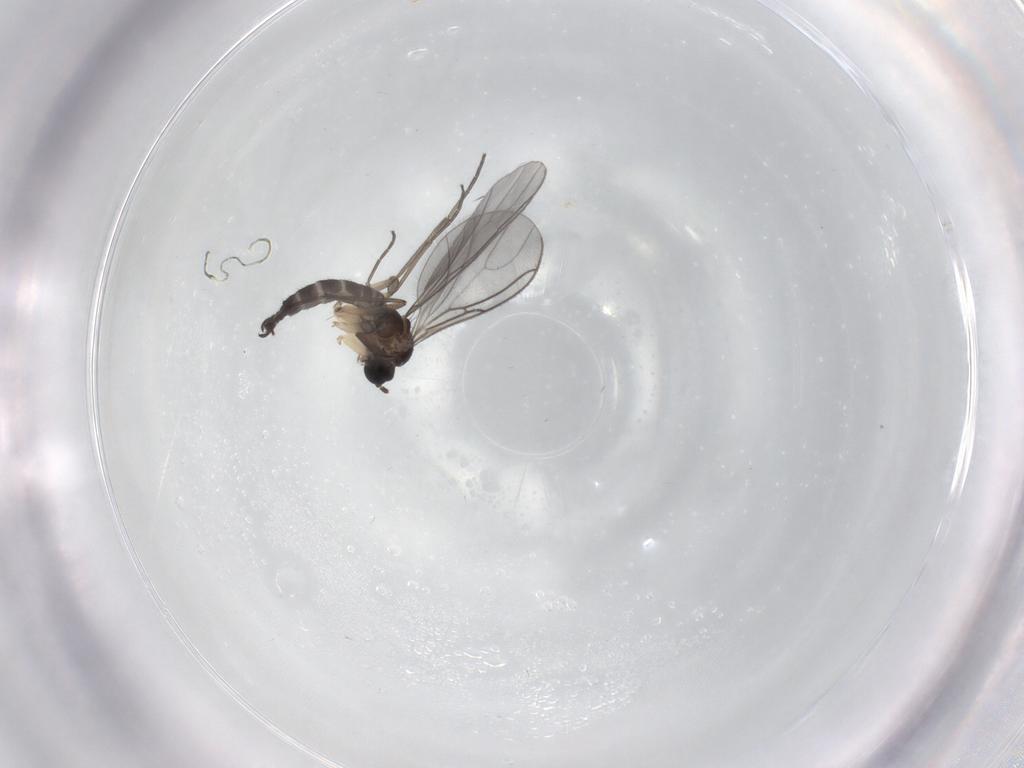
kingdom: Animalia
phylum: Arthropoda
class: Insecta
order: Diptera
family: Sciaridae
